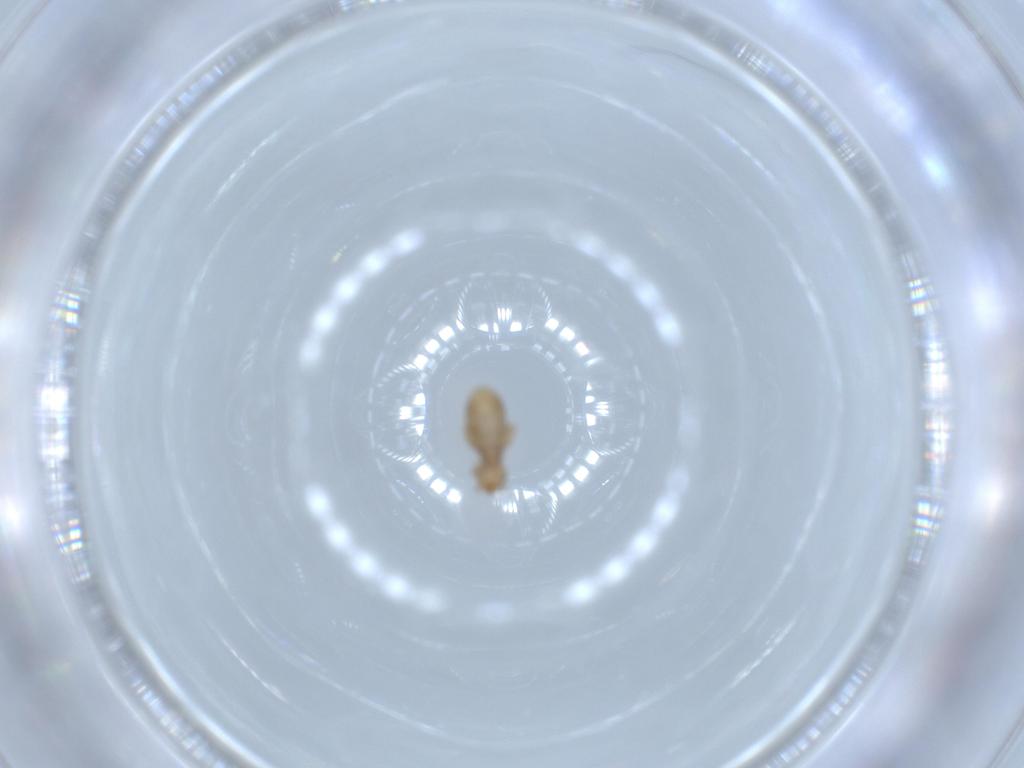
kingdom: Animalia
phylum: Arthropoda
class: Insecta
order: Psocodea
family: Liposcelididae
